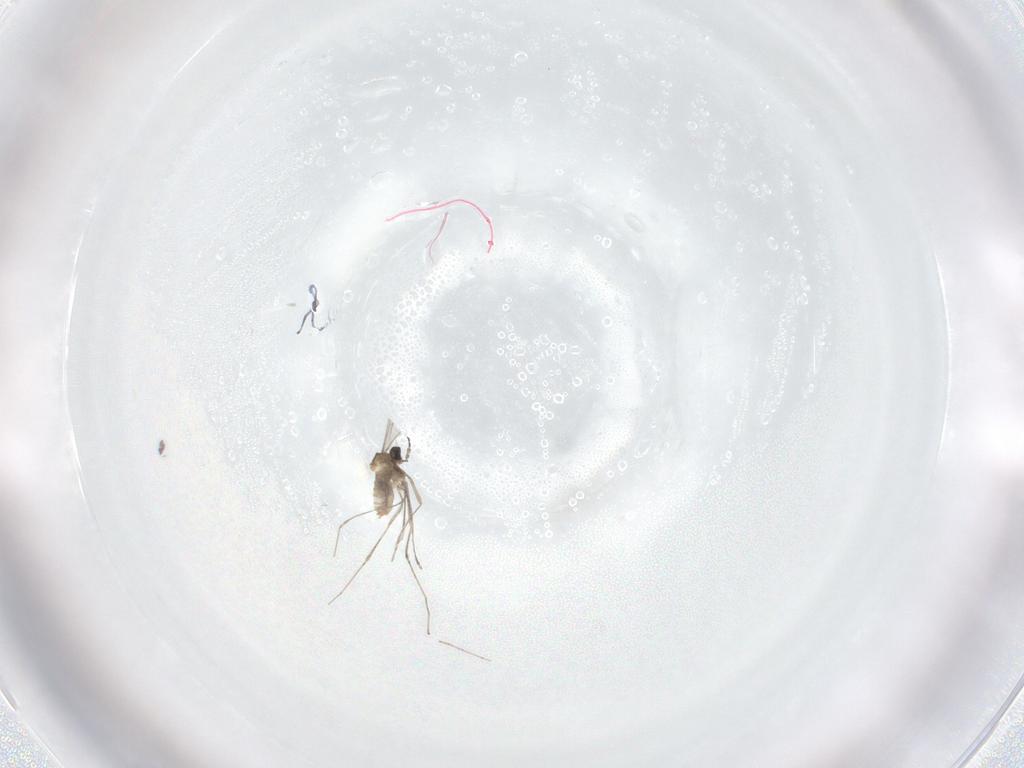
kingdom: Animalia
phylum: Arthropoda
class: Insecta
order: Diptera
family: Cecidomyiidae
